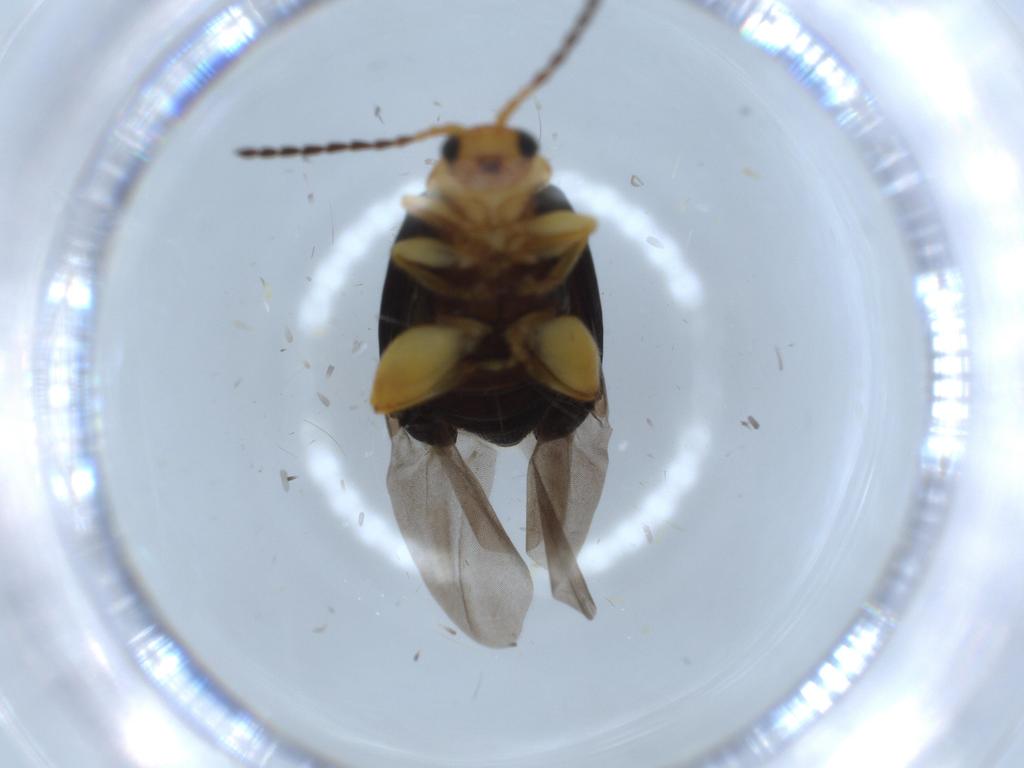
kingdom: Animalia
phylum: Arthropoda
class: Insecta
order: Coleoptera
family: Chrysomelidae
